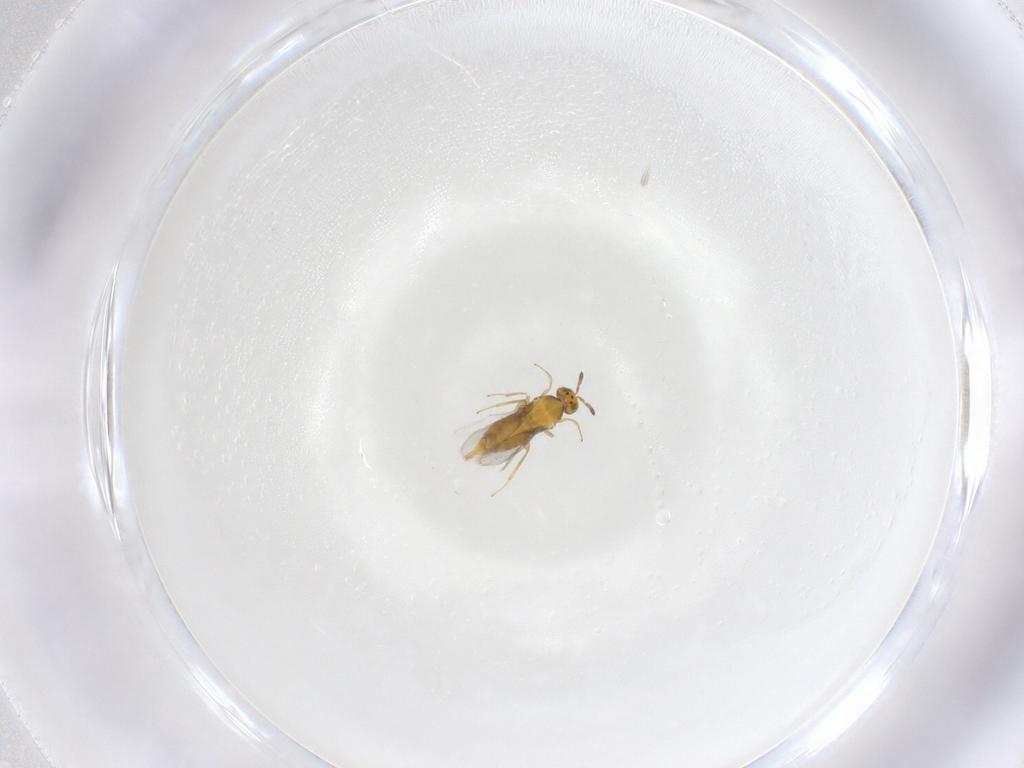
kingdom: Animalia
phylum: Arthropoda
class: Insecta
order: Hymenoptera
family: Aphelinidae
